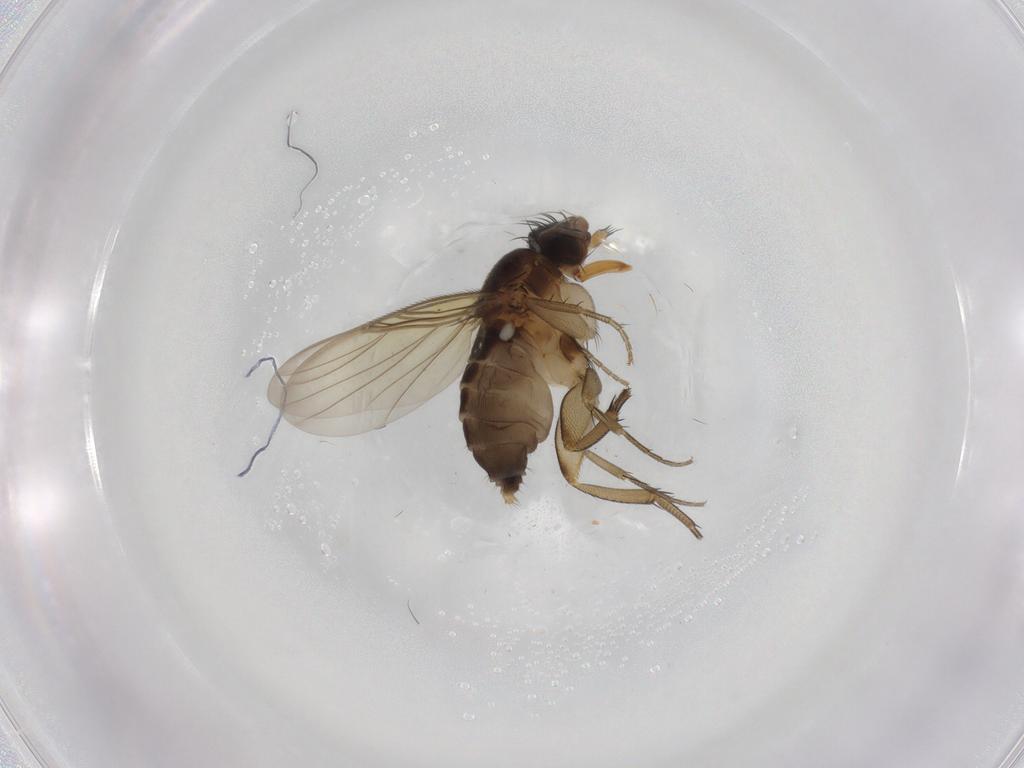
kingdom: Animalia
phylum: Arthropoda
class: Insecta
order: Diptera
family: Phoridae
